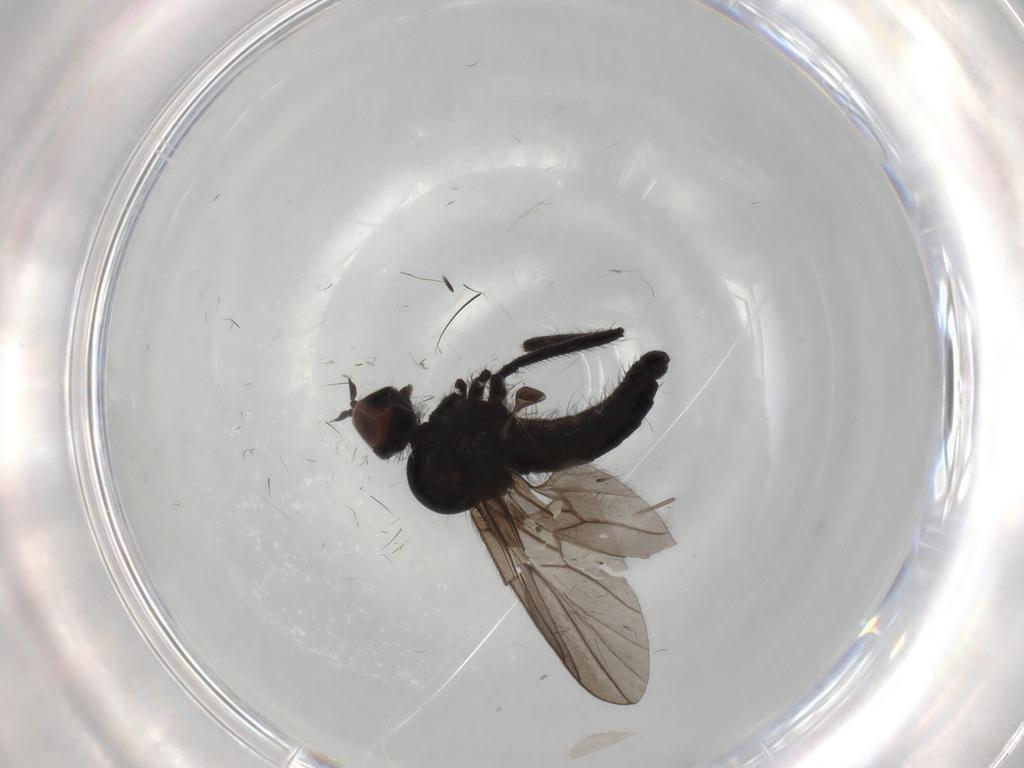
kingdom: Animalia
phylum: Arthropoda
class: Insecta
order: Diptera
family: Hybotidae
